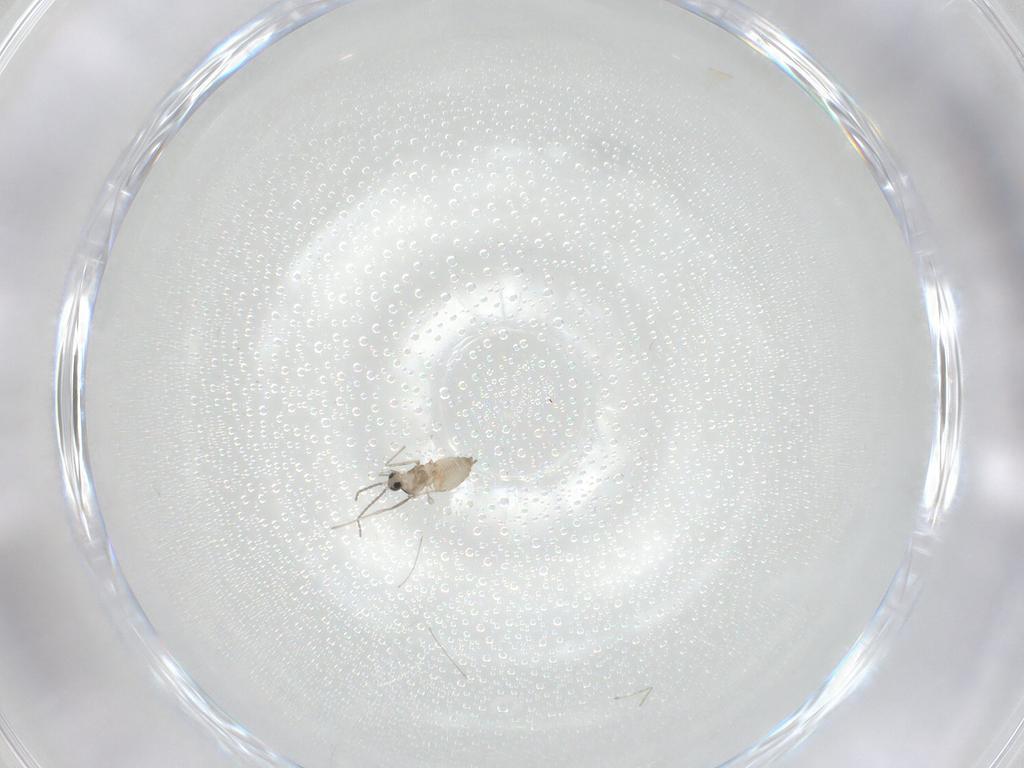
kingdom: Animalia
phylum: Arthropoda
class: Insecta
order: Diptera
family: Cecidomyiidae
